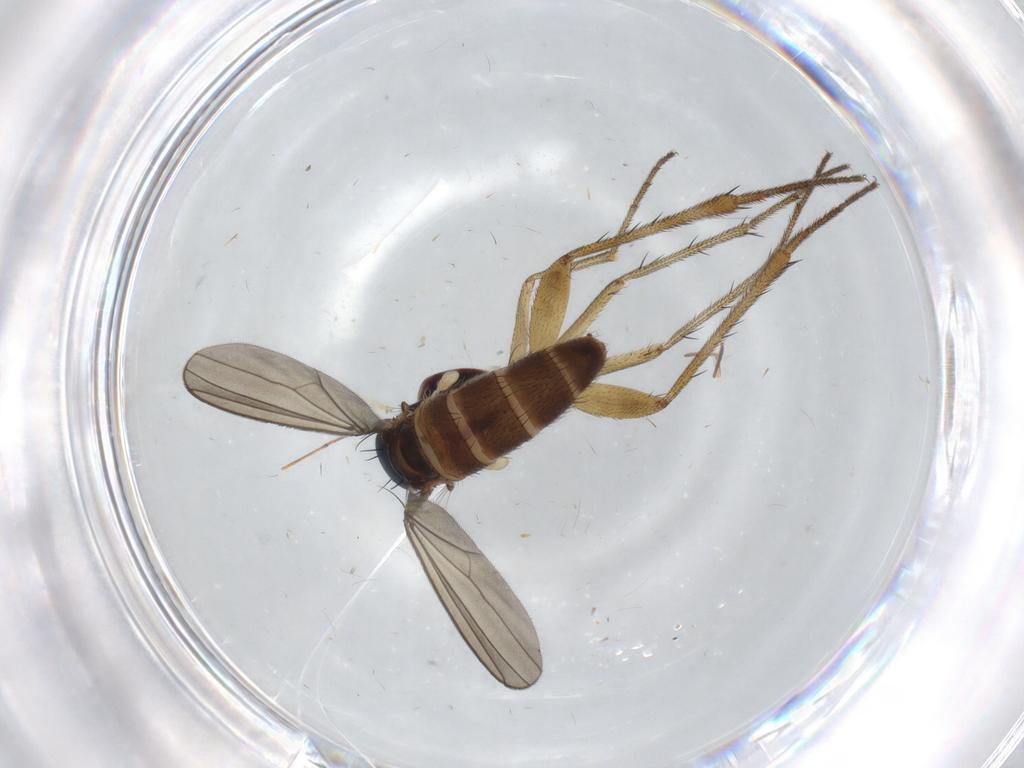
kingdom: Animalia
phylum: Arthropoda
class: Insecta
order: Diptera
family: Dolichopodidae
